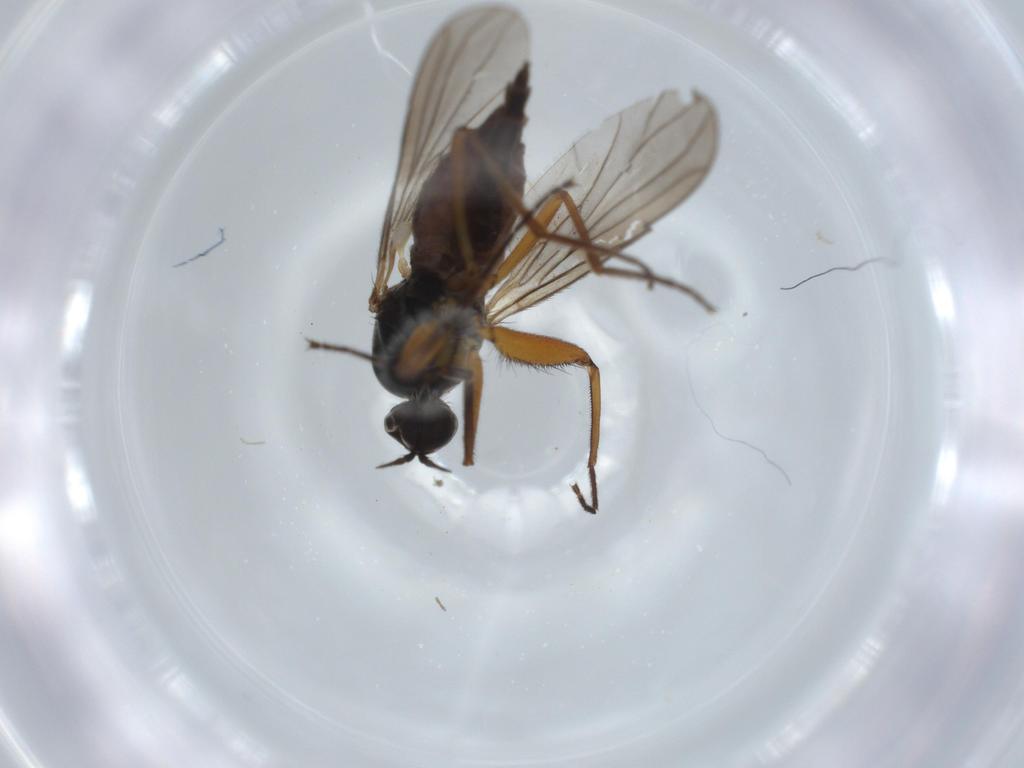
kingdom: Animalia
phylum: Arthropoda
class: Insecta
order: Diptera
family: Hybotidae
